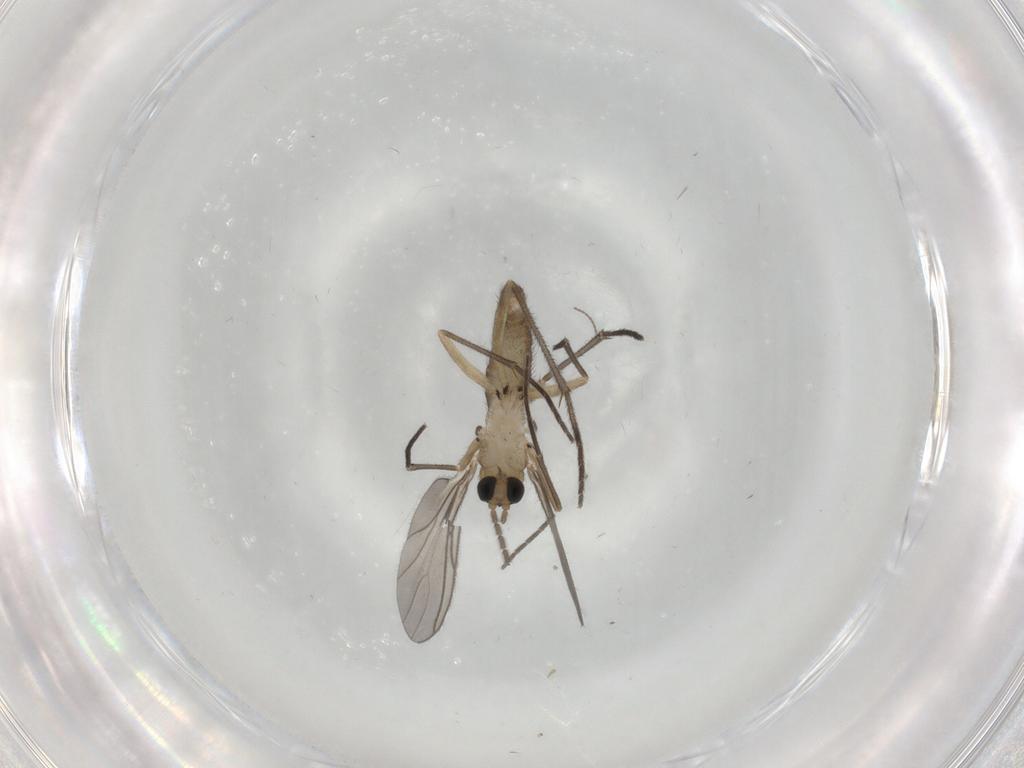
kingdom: Animalia
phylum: Arthropoda
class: Insecta
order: Diptera
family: Sciaridae
